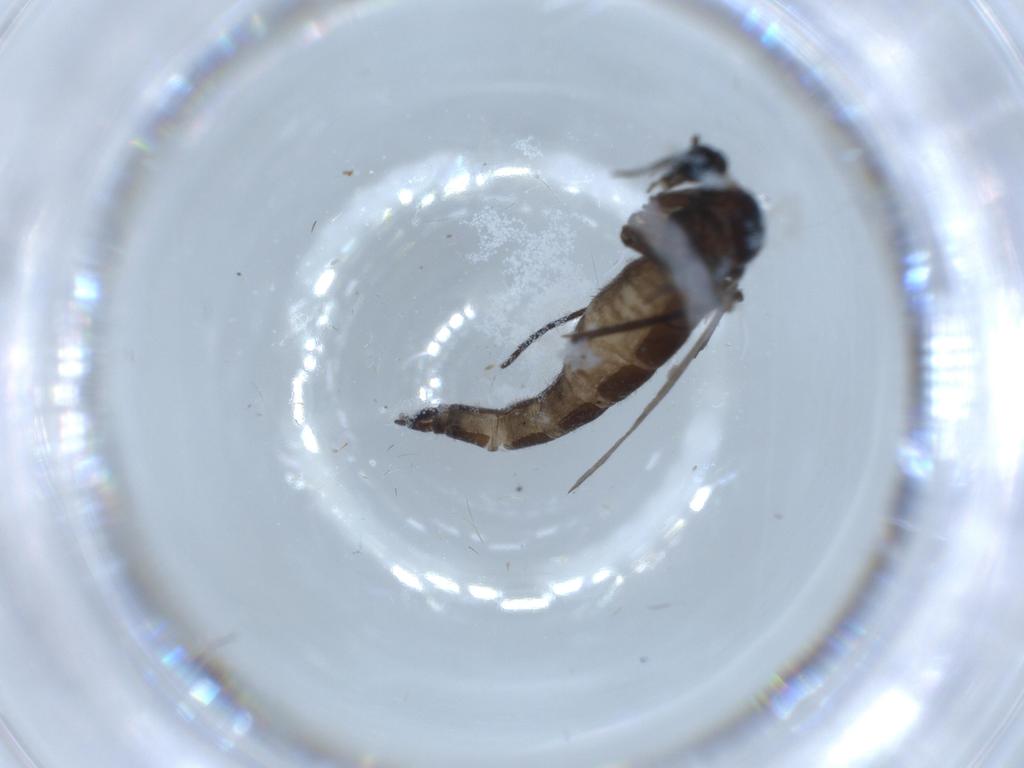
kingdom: Animalia
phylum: Arthropoda
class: Insecta
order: Diptera
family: Sciaridae
